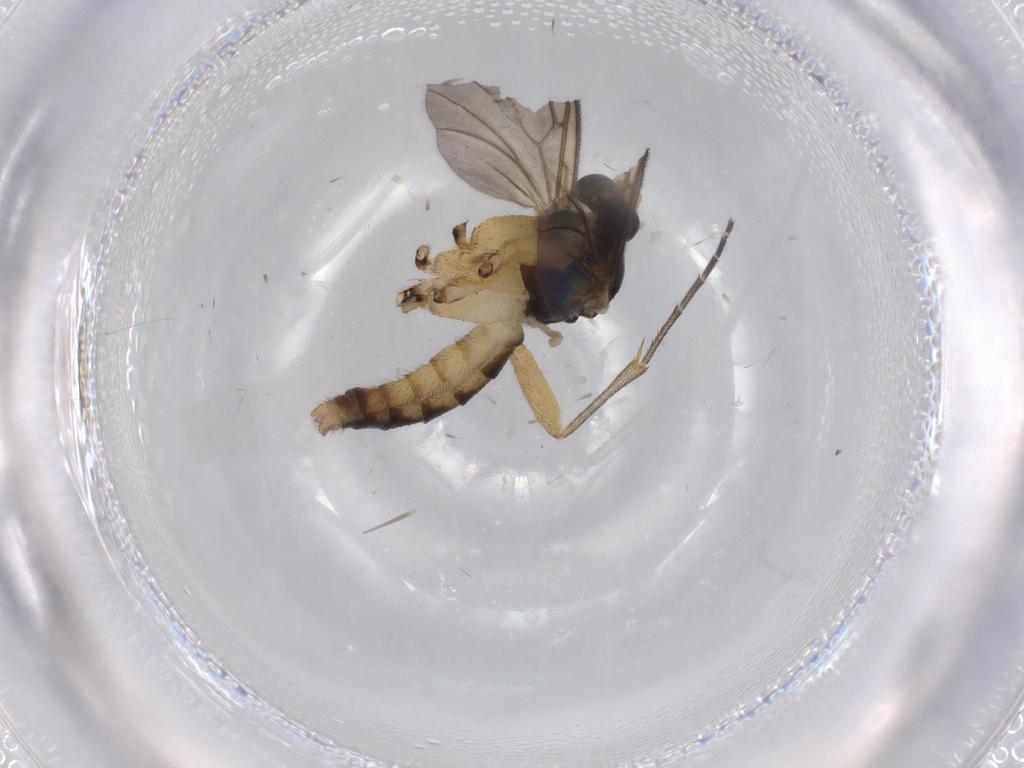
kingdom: Animalia
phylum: Arthropoda
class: Insecta
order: Diptera
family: Mycetophilidae
